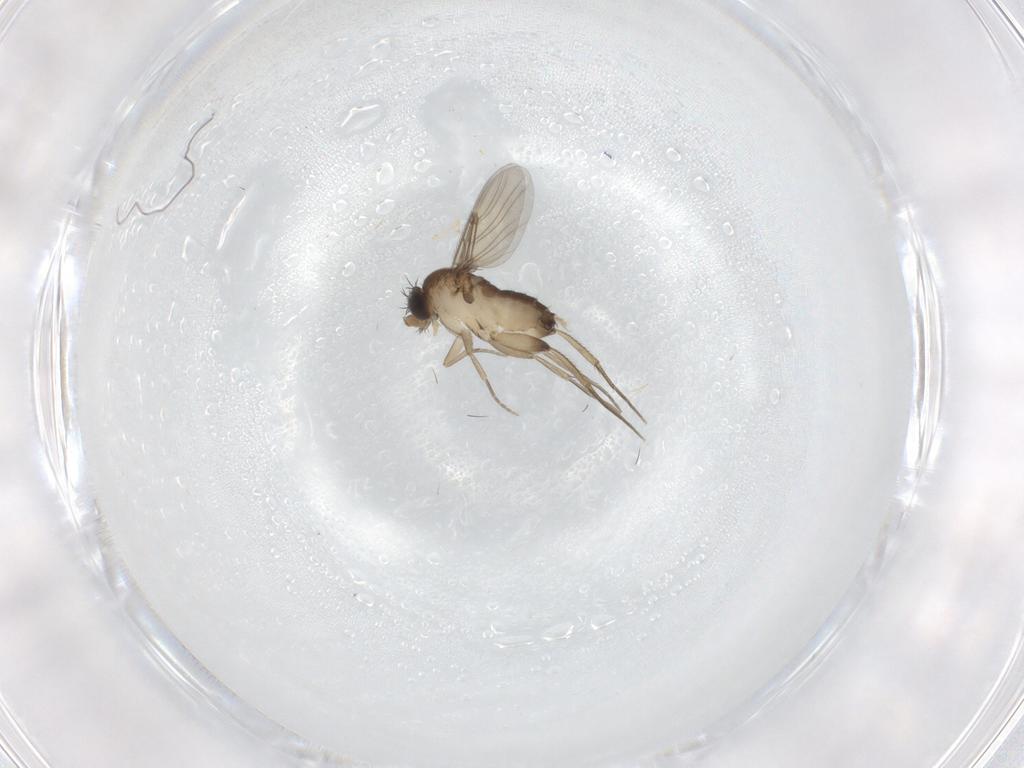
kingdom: Animalia
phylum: Arthropoda
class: Insecta
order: Diptera
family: Phoridae
